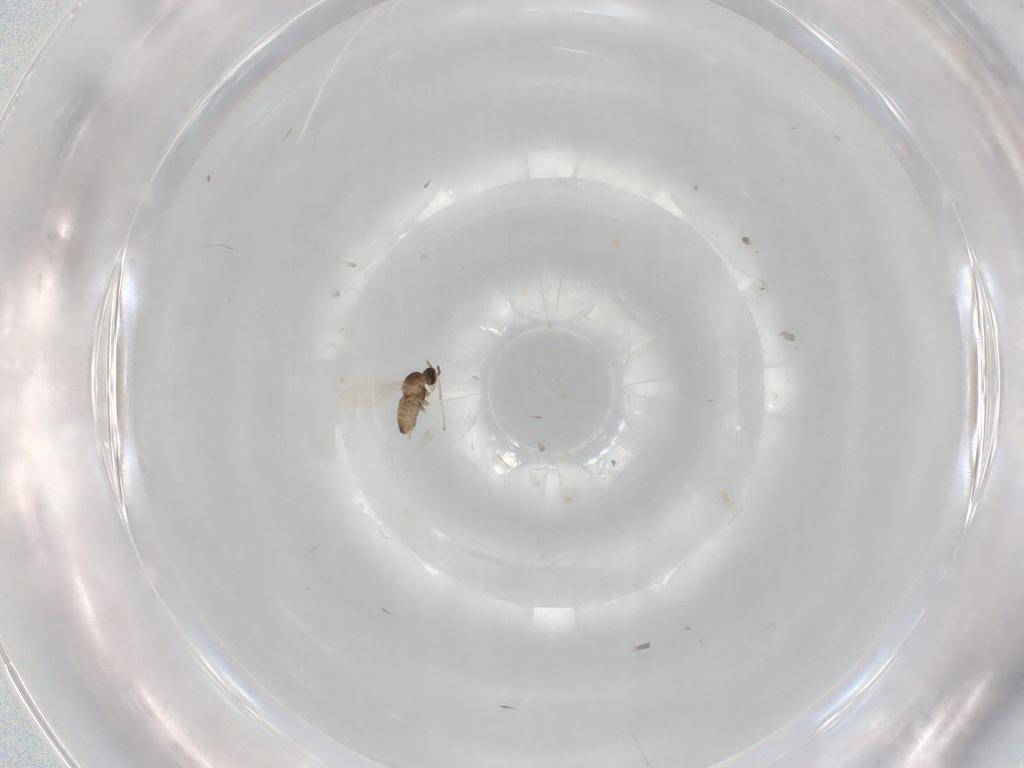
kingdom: Animalia
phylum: Arthropoda
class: Insecta
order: Diptera
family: Cecidomyiidae
